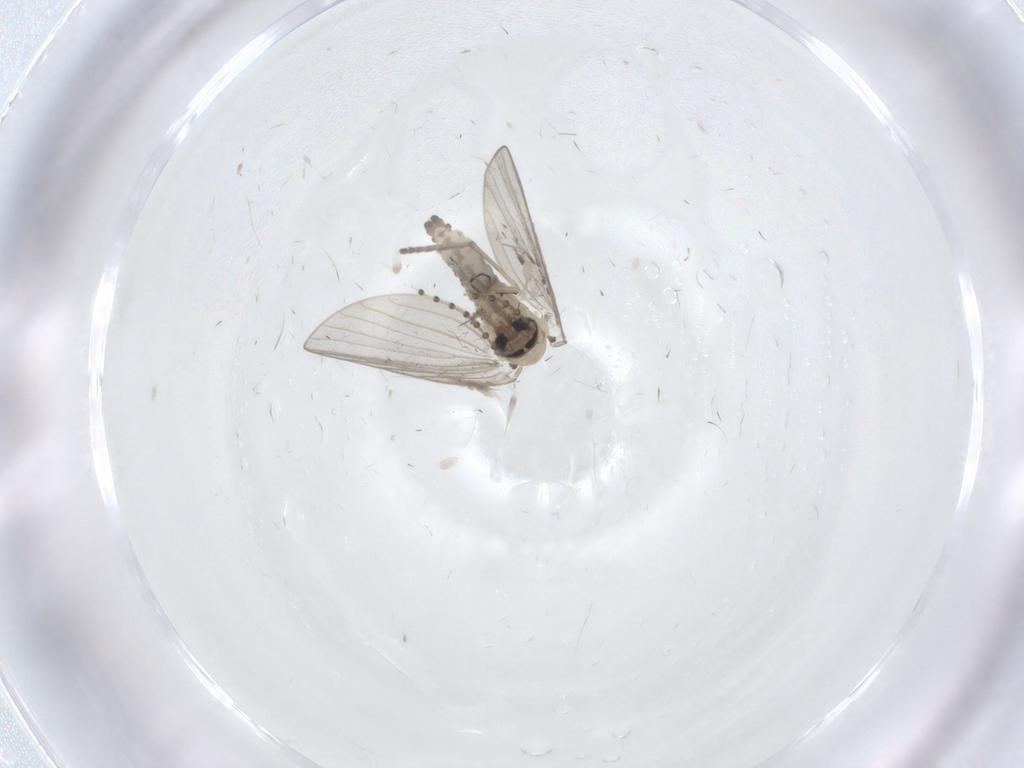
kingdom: Animalia
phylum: Arthropoda
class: Insecta
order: Diptera
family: Psychodidae
